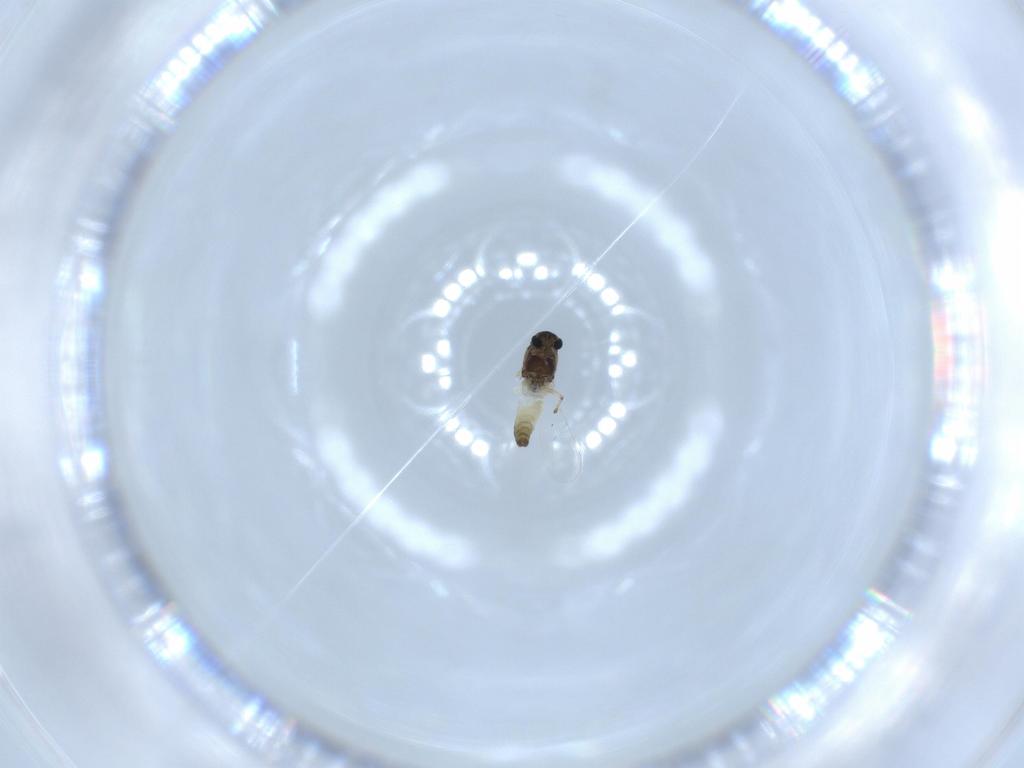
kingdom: Animalia
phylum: Arthropoda
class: Insecta
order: Diptera
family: Chironomidae
